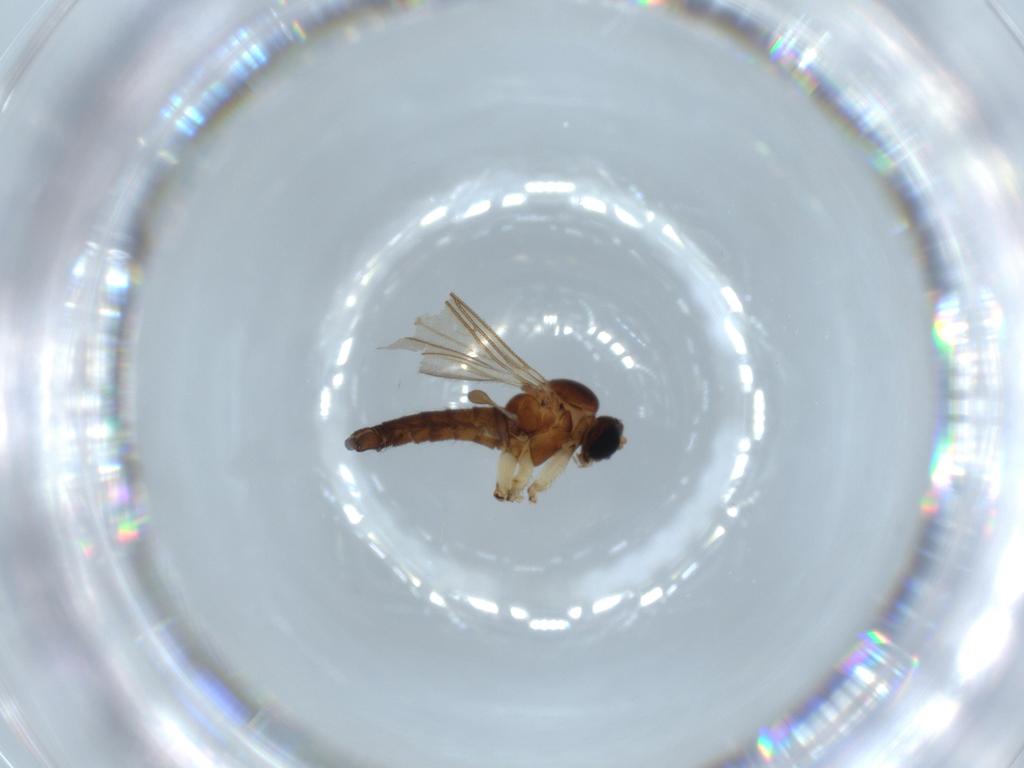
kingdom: Animalia
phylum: Arthropoda
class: Insecta
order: Diptera
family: Sciaridae
